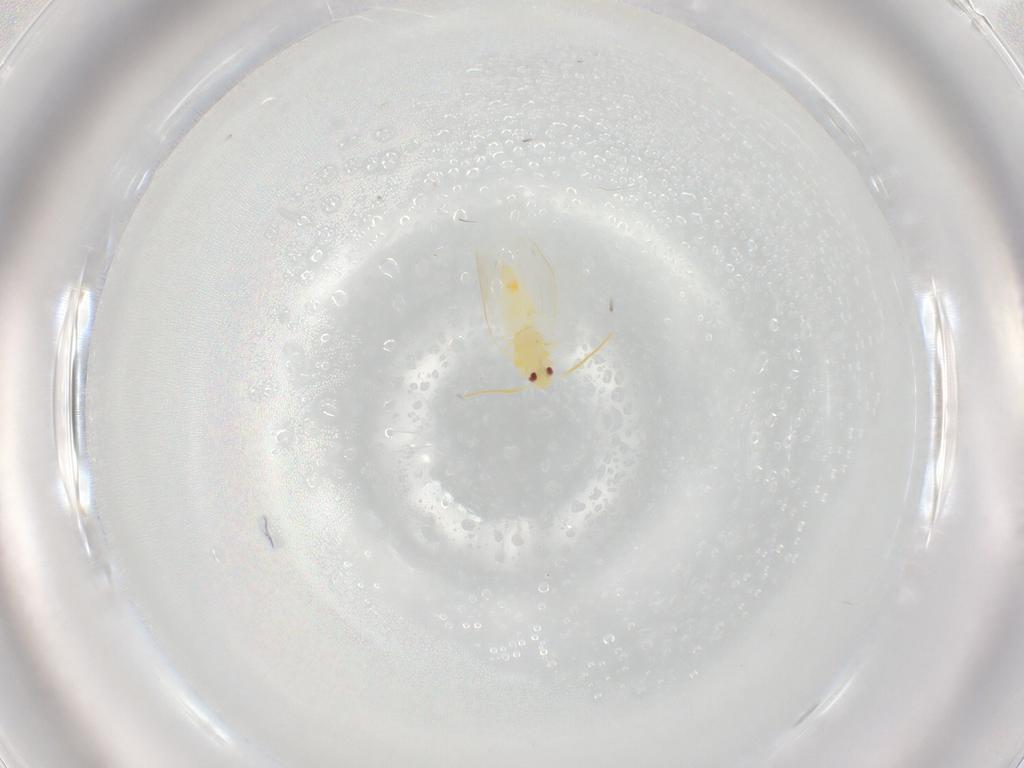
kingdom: Animalia
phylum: Arthropoda
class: Insecta
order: Hemiptera
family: Aleyrodidae
